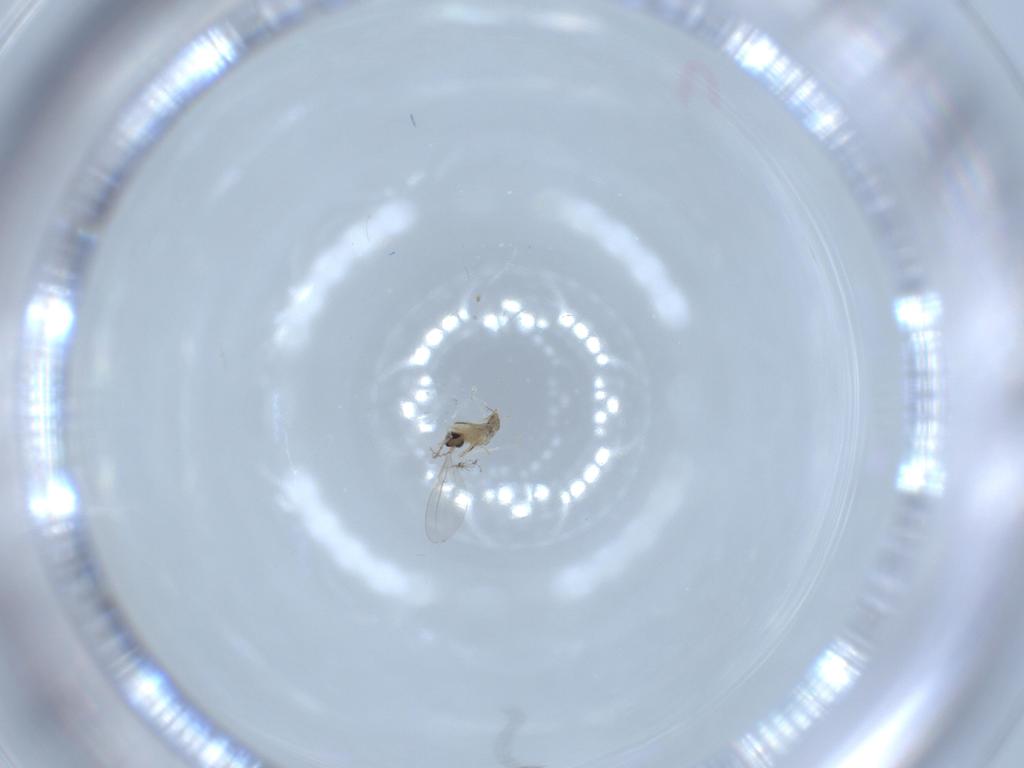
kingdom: Animalia
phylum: Arthropoda
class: Insecta
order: Diptera
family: Cecidomyiidae
